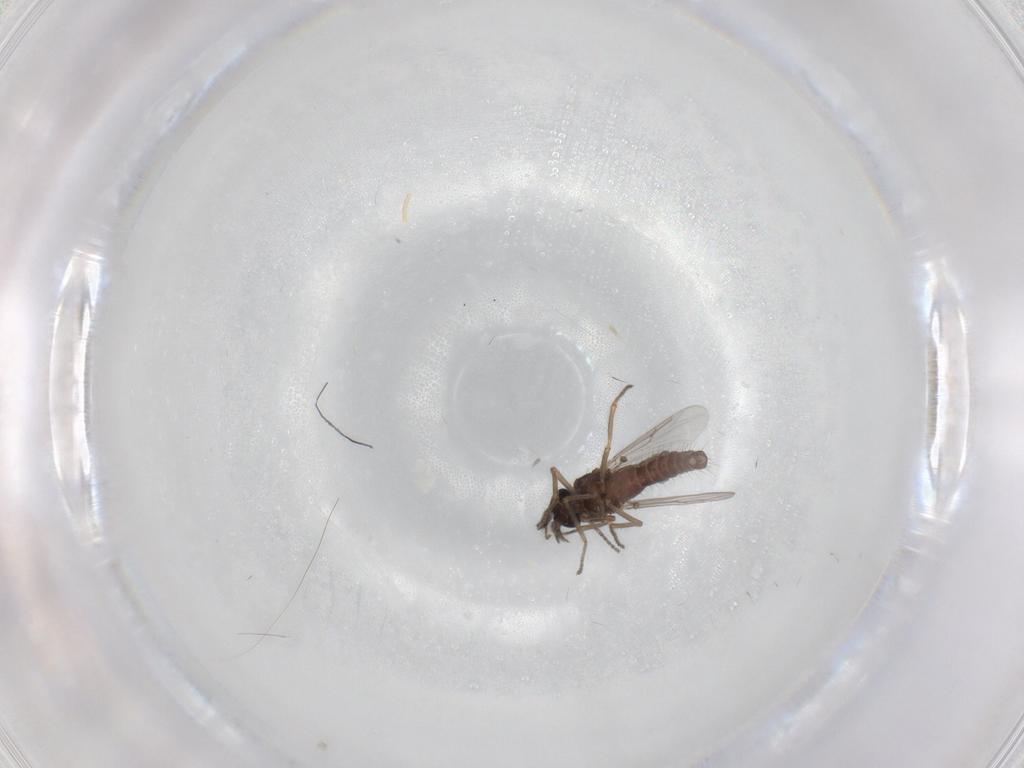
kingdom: Animalia
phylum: Arthropoda
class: Insecta
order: Diptera
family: Ceratopogonidae
